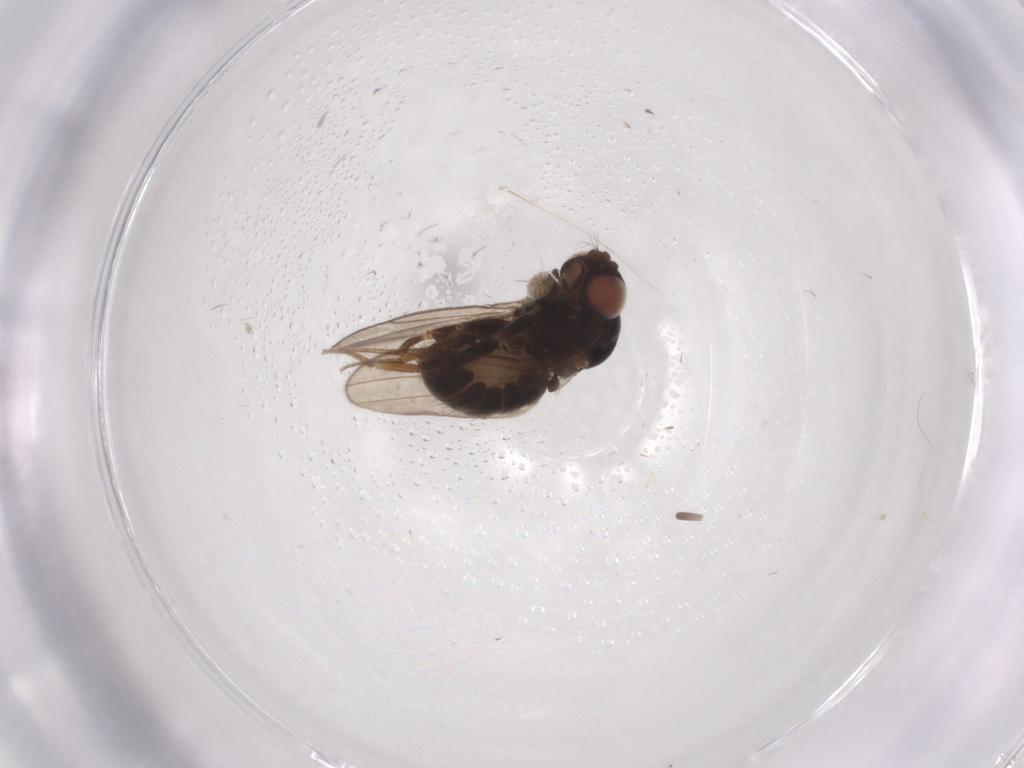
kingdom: Animalia
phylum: Arthropoda
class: Insecta
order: Diptera
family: Drosophilidae
